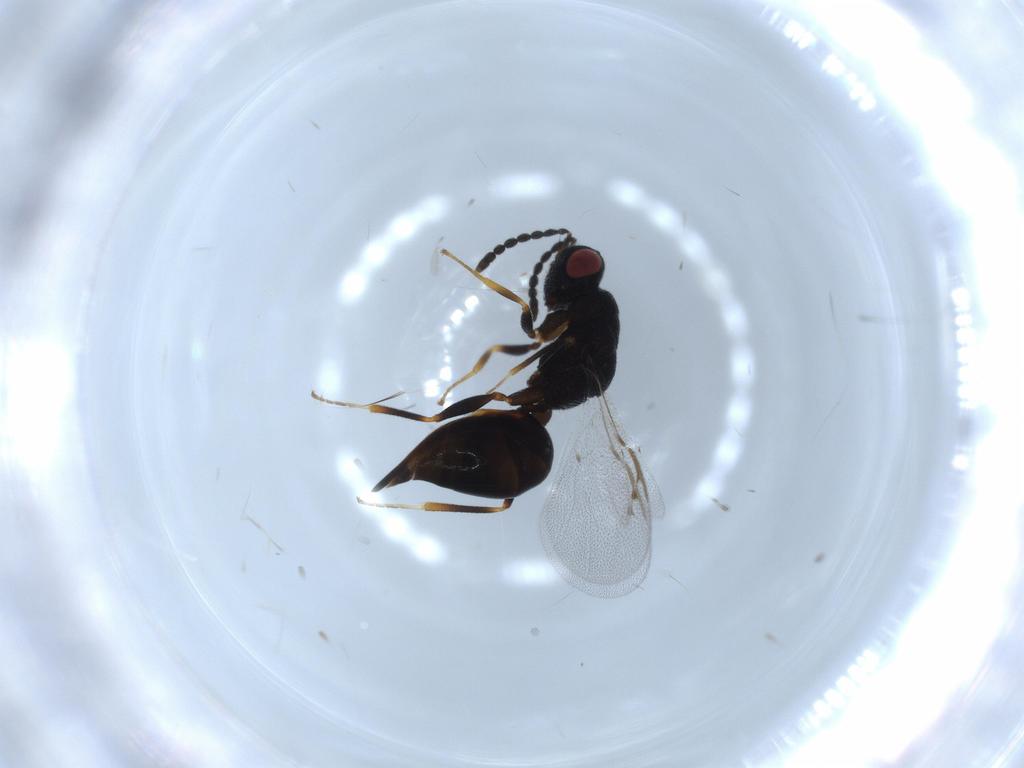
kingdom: Animalia
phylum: Arthropoda
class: Insecta
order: Hymenoptera
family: Eurytomidae
